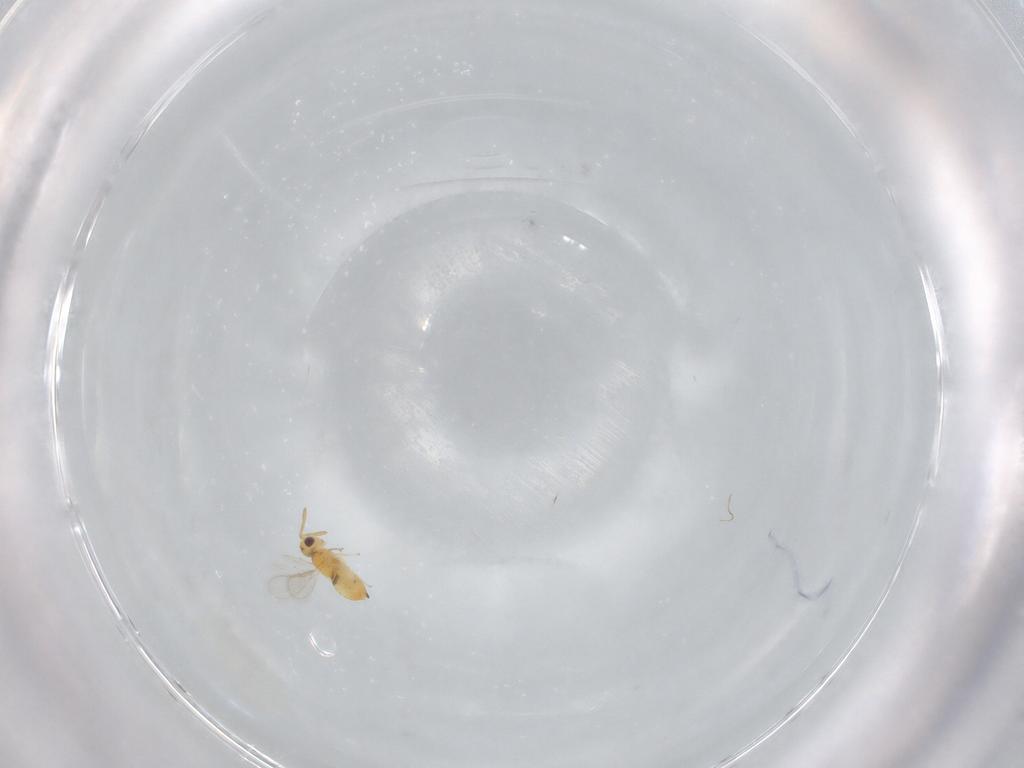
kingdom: Animalia
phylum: Arthropoda
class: Insecta
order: Hymenoptera
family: Aphelinidae
